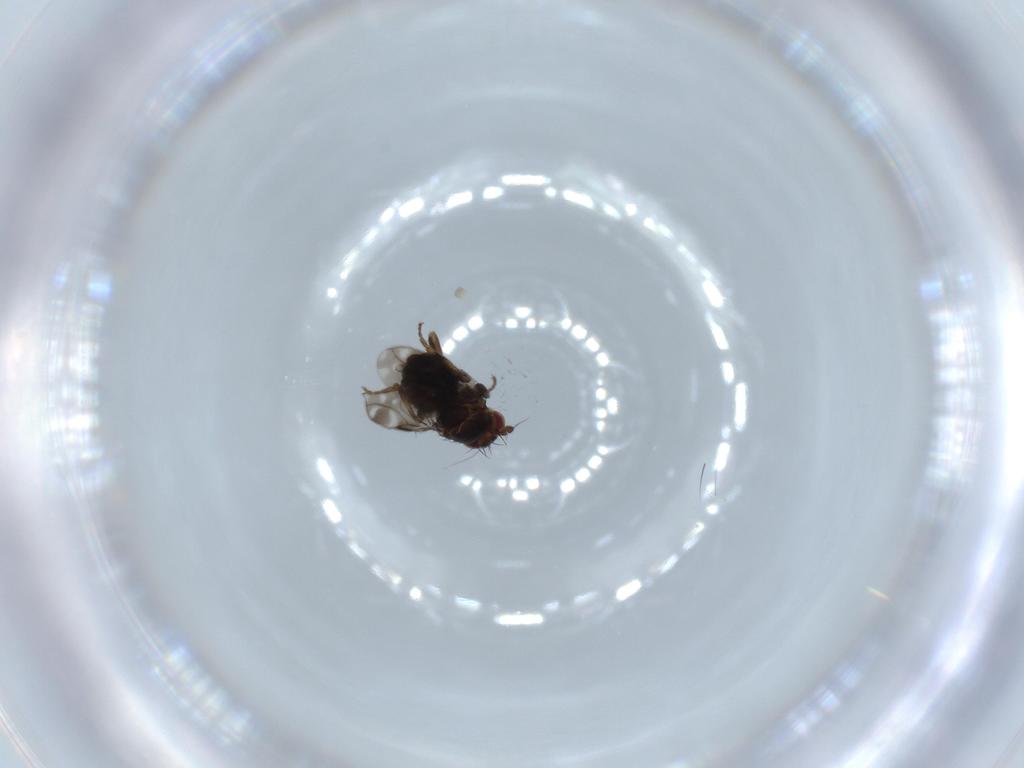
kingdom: Animalia
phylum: Arthropoda
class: Insecta
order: Diptera
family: Sphaeroceridae
